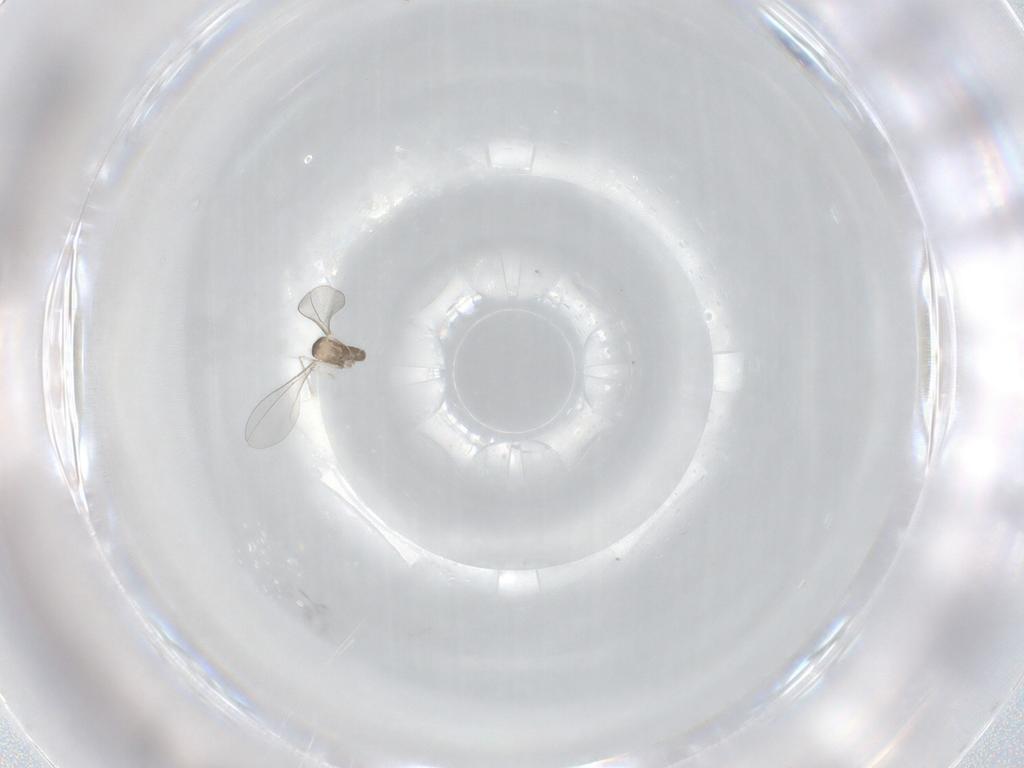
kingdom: Animalia
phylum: Arthropoda
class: Insecta
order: Diptera
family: Cecidomyiidae
